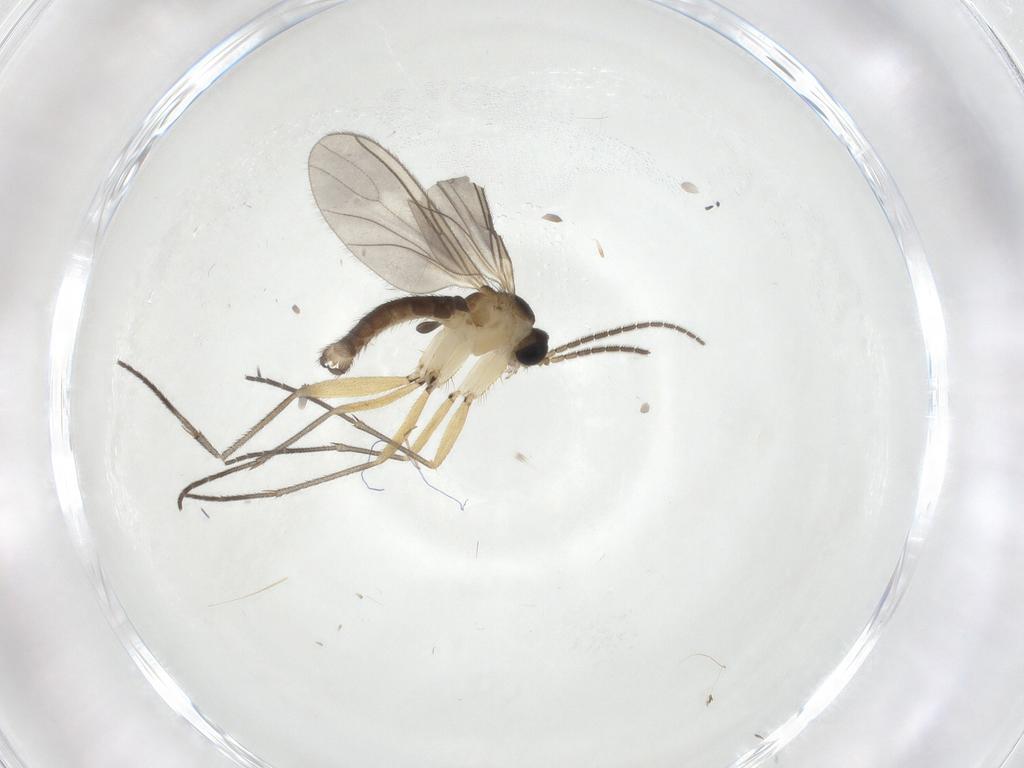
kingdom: Animalia
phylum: Arthropoda
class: Insecta
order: Diptera
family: Sciaridae
